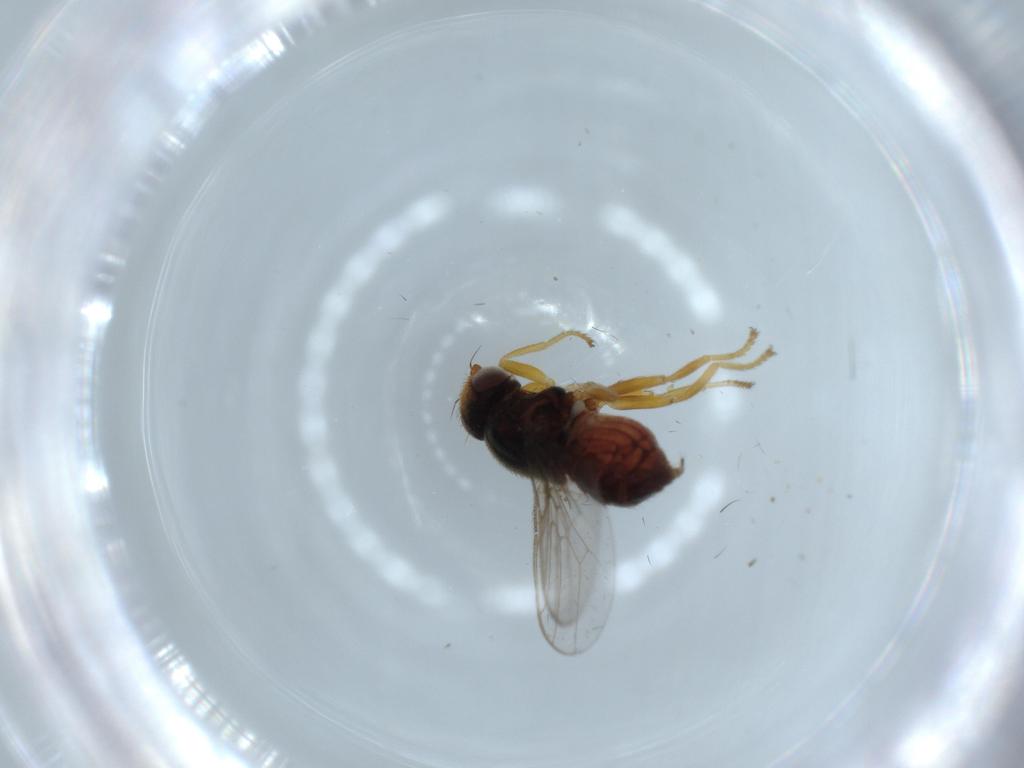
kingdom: Animalia
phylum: Arthropoda
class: Insecta
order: Diptera
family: Chloropidae
